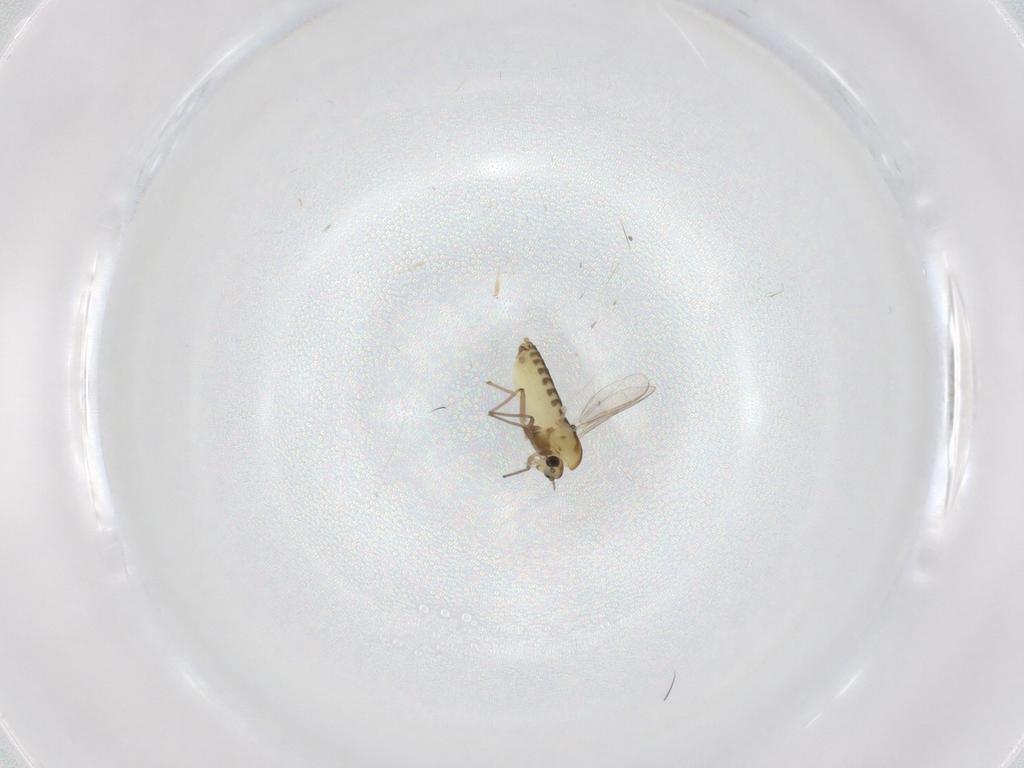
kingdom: Animalia
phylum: Arthropoda
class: Insecta
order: Diptera
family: Chironomidae
